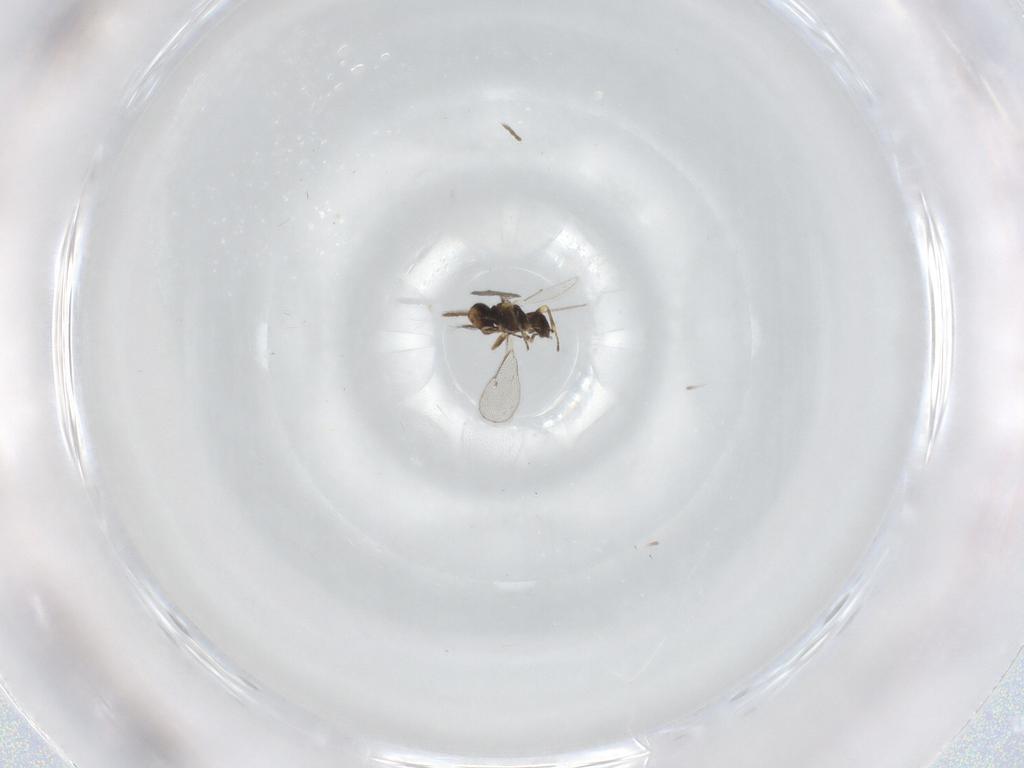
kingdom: Animalia
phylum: Arthropoda
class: Insecta
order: Hymenoptera
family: Eulophidae
